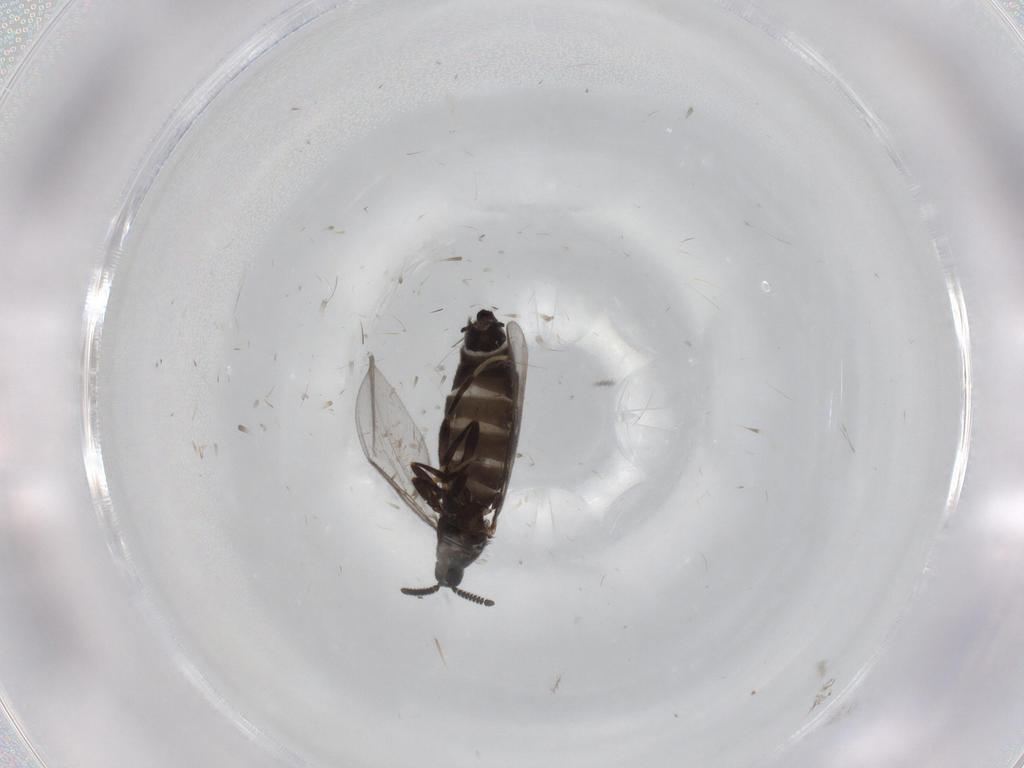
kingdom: Animalia
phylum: Arthropoda
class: Insecta
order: Diptera
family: Scatopsidae
